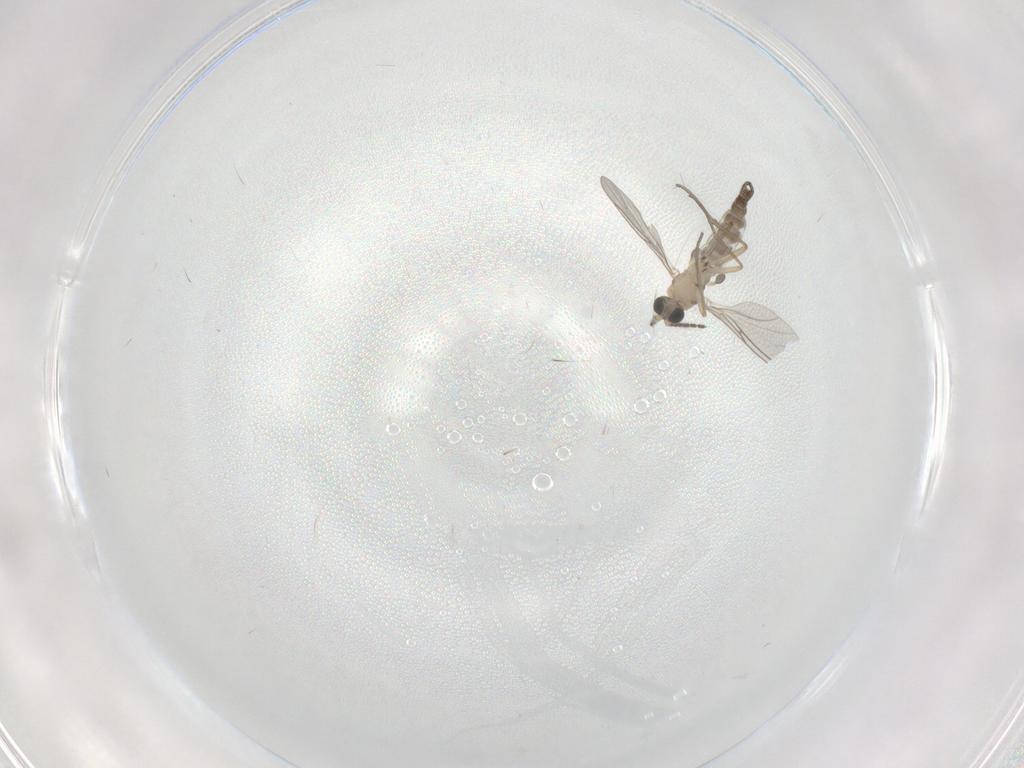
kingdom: Animalia
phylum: Arthropoda
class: Insecta
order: Diptera
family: Sciaridae
